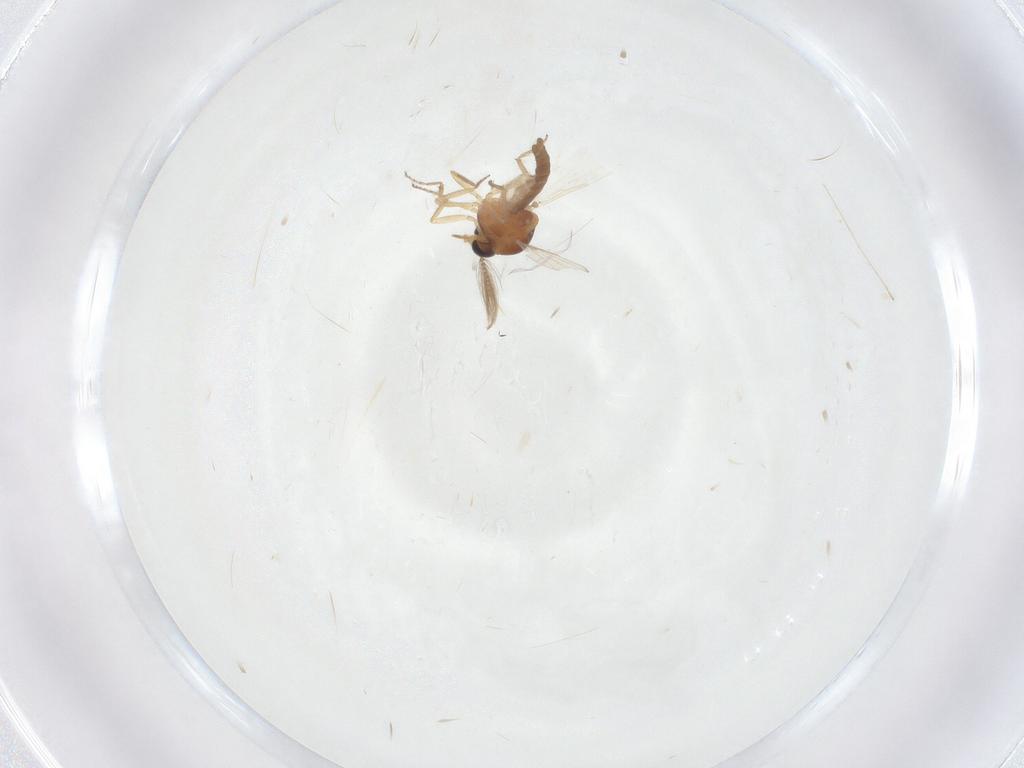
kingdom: Animalia
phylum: Arthropoda
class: Insecta
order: Diptera
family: Ceratopogonidae
